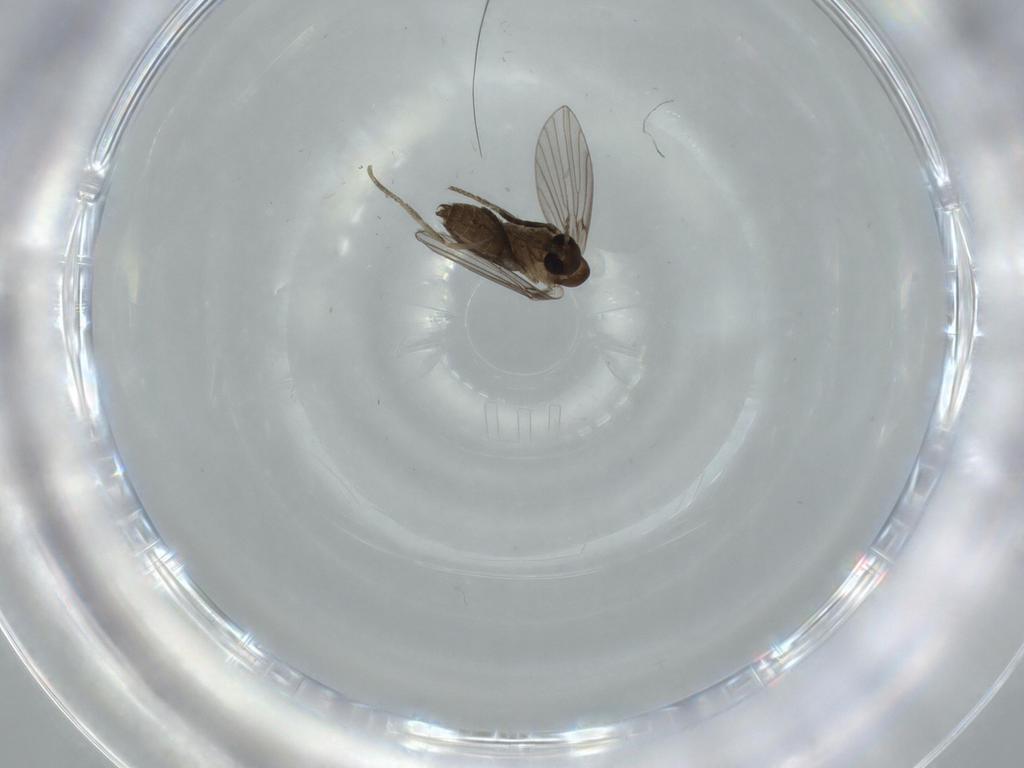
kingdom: Animalia
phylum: Arthropoda
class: Insecta
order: Diptera
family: Psychodidae
